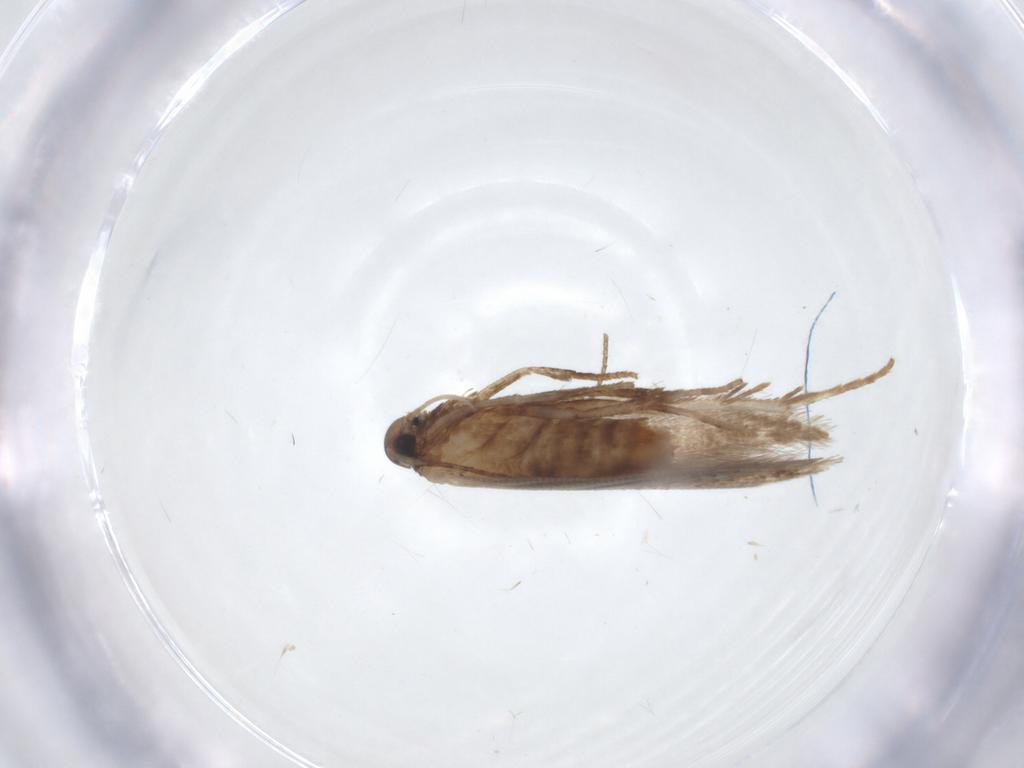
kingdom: Animalia
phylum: Arthropoda
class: Insecta
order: Lepidoptera
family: Gelechiidae
